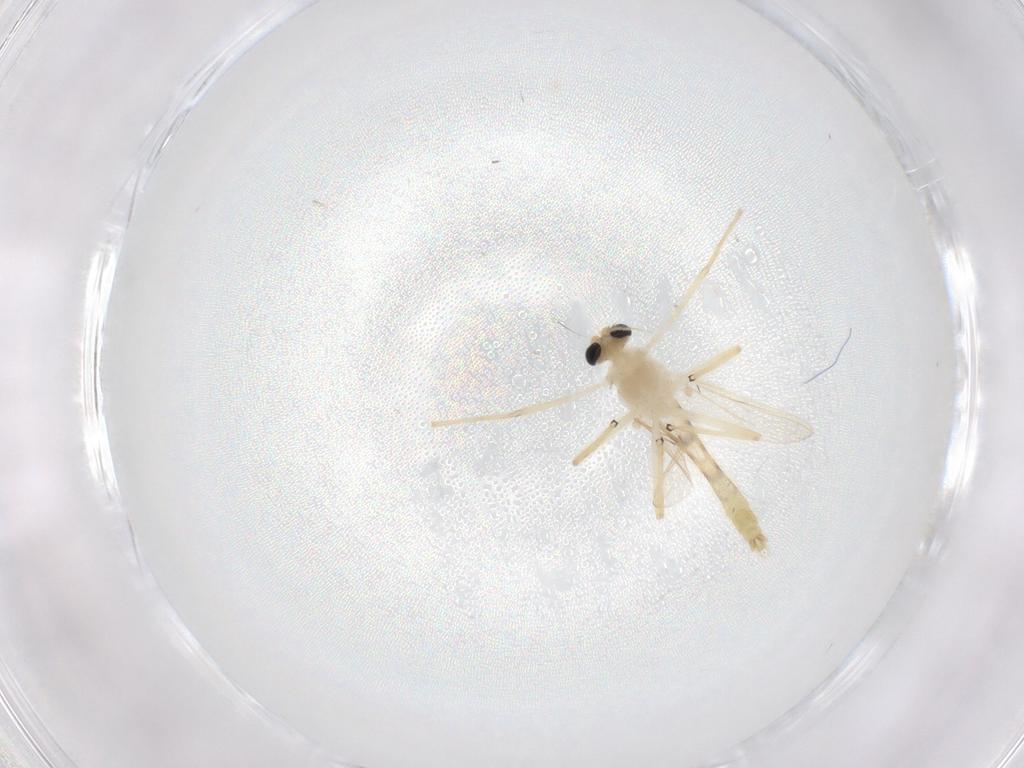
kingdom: Animalia
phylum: Arthropoda
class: Insecta
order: Diptera
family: Chironomidae
